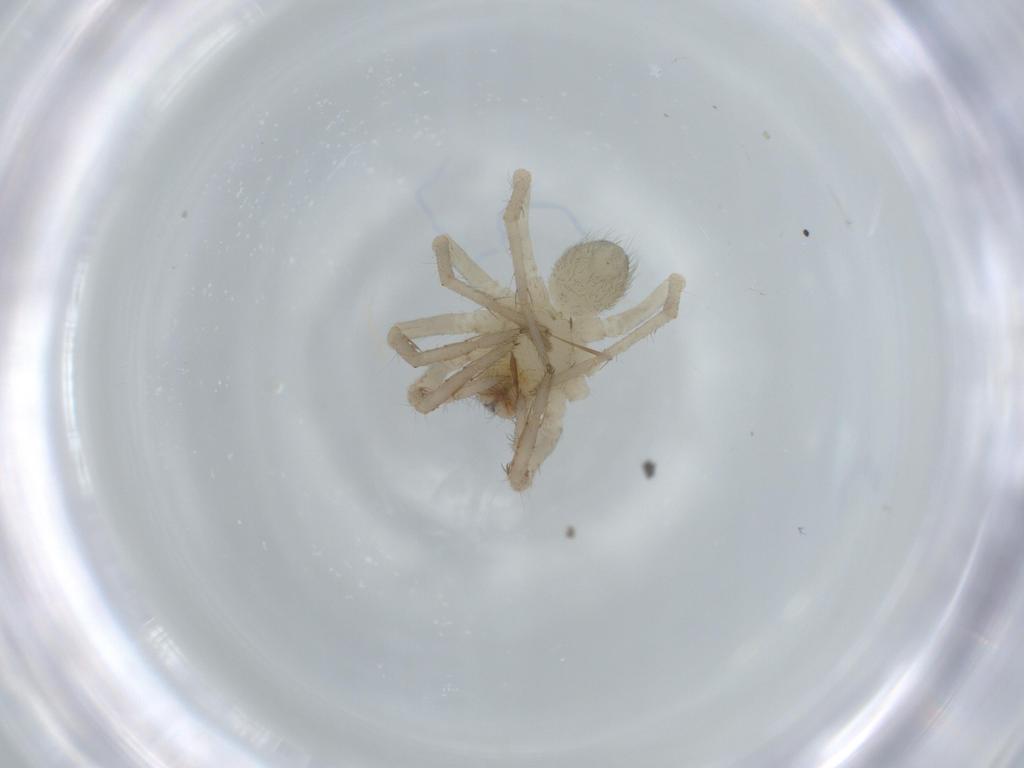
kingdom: Animalia
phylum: Arthropoda
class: Arachnida
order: Araneae
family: Ctenidae
